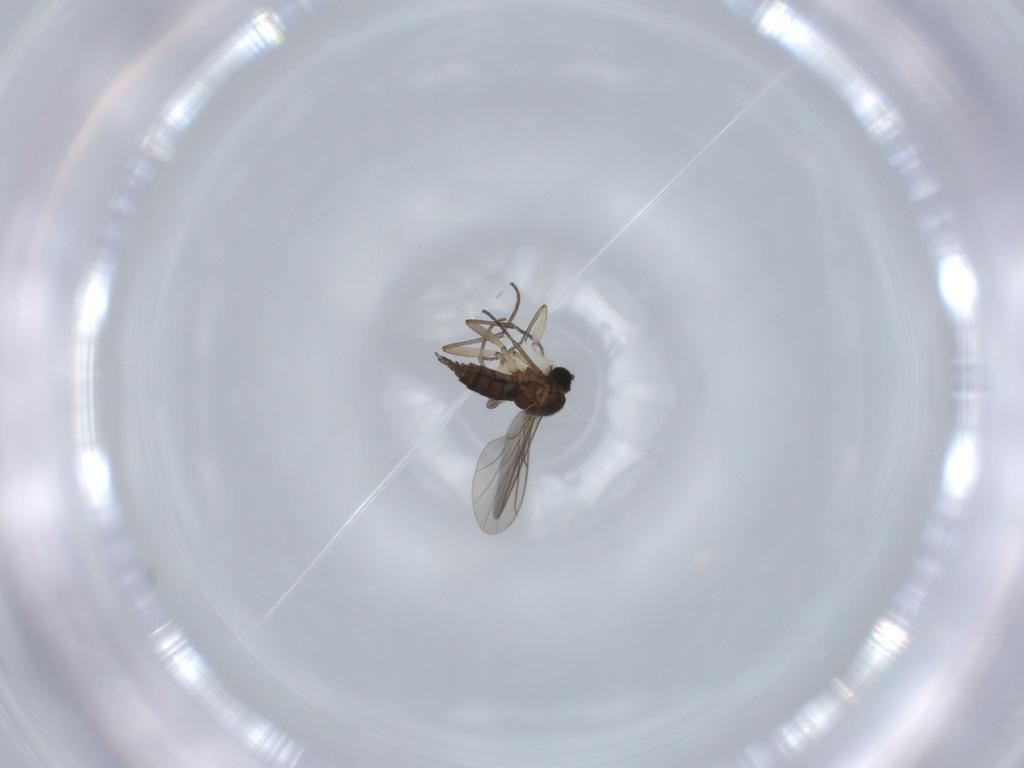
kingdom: Animalia
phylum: Arthropoda
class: Insecta
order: Diptera
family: Sciaridae
